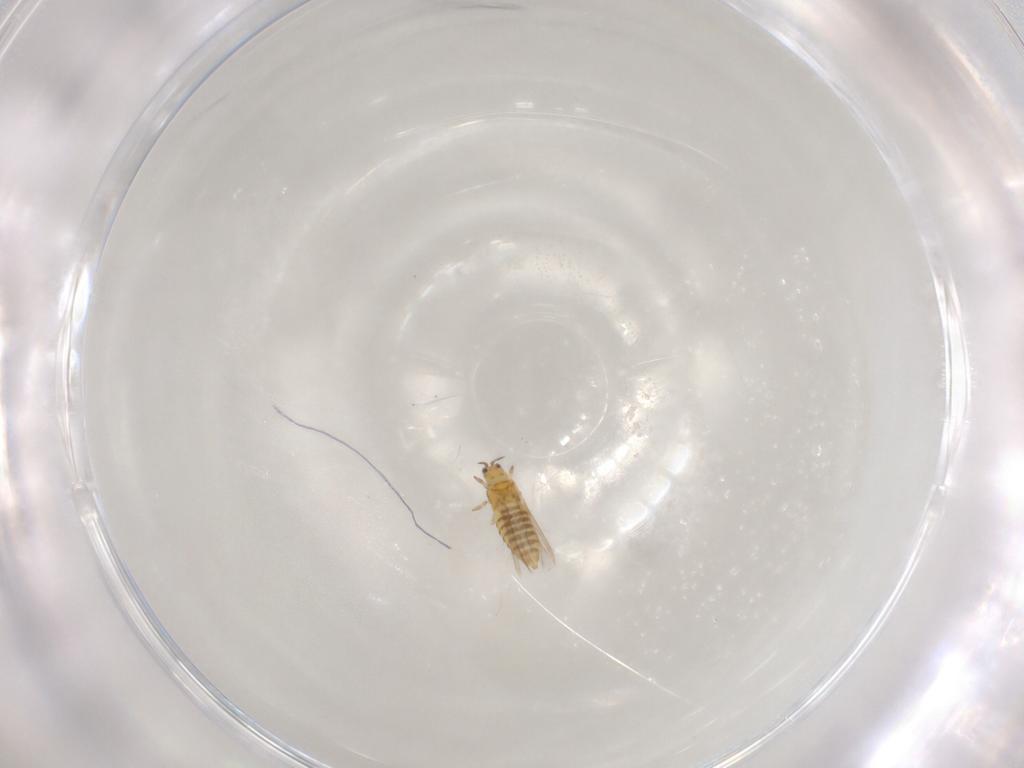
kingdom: Animalia
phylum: Arthropoda
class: Insecta
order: Thysanoptera
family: Thripidae
